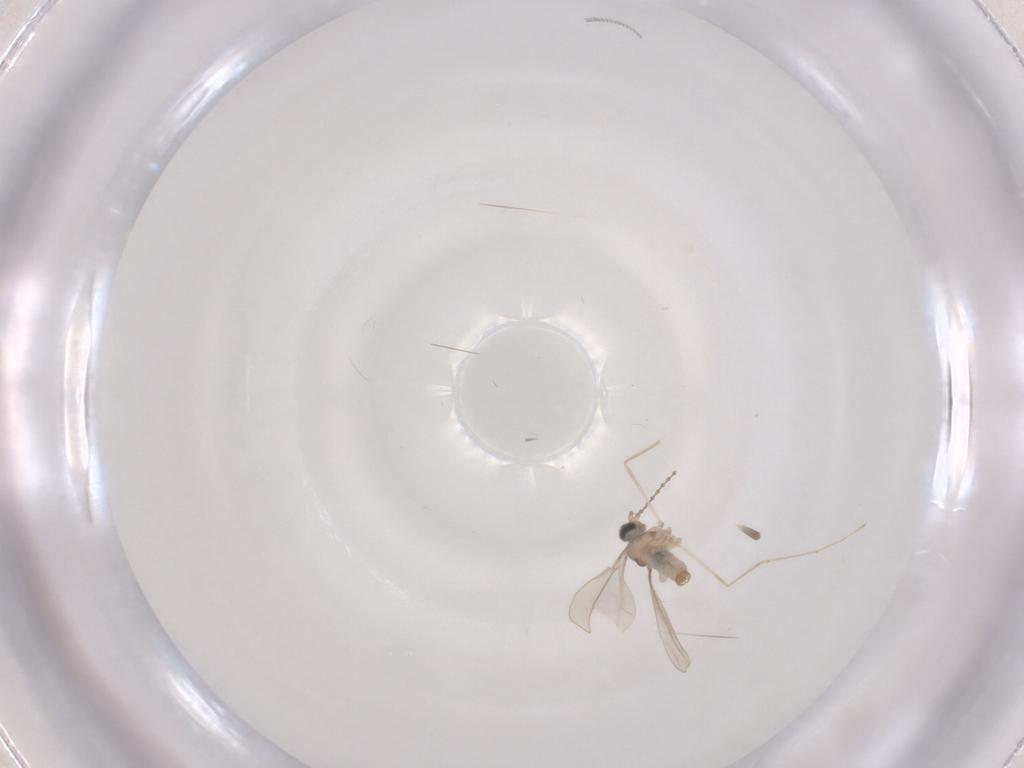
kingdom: Animalia
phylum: Arthropoda
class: Insecta
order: Diptera
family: Cecidomyiidae
